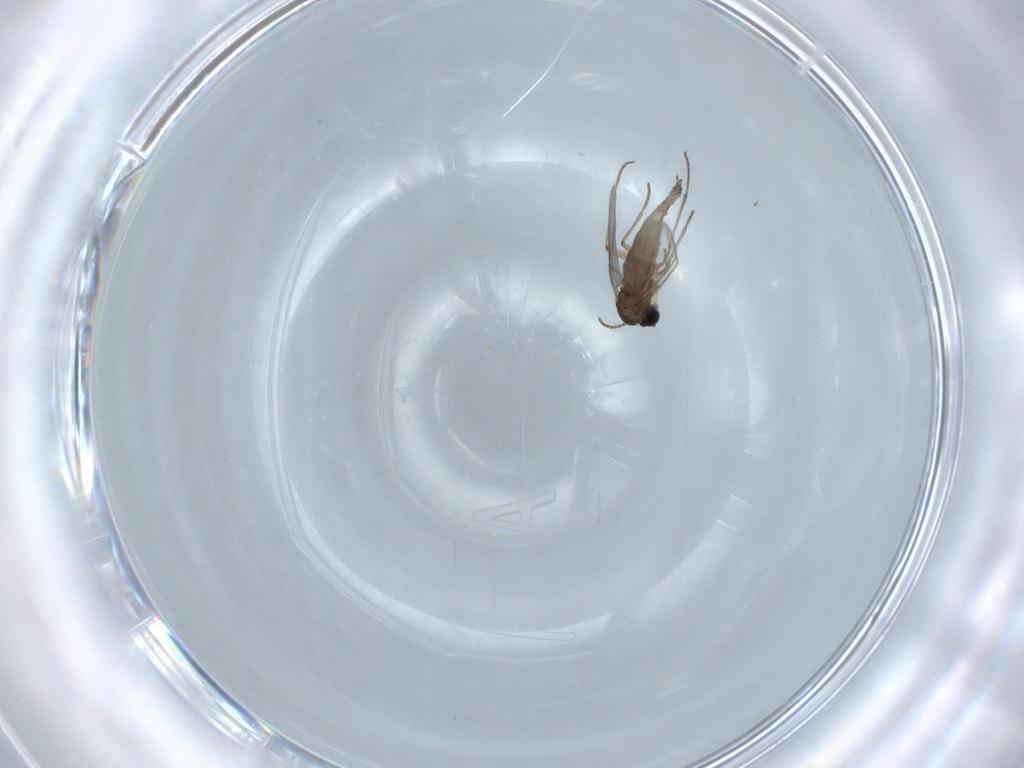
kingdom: Animalia
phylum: Arthropoda
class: Insecta
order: Diptera
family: Sciaridae
